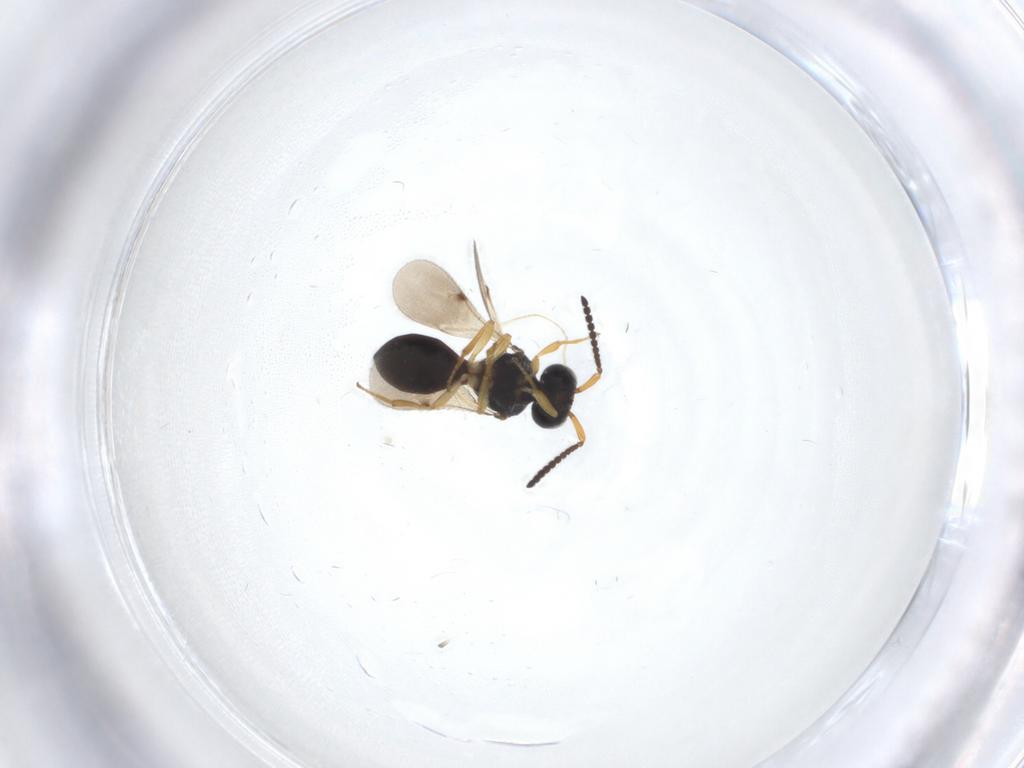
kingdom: Animalia
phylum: Arthropoda
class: Insecta
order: Hymenoptera
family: Scelionidae
